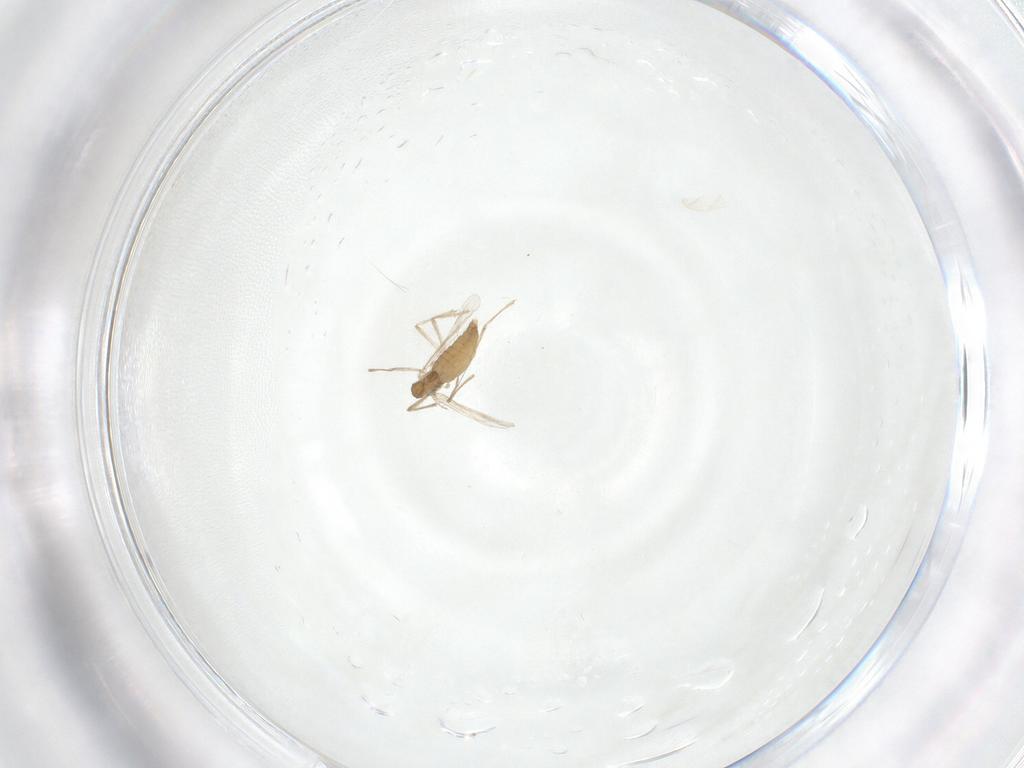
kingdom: Animalia
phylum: Arthropoda
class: Insecta
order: Diptera
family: Chironomidae
